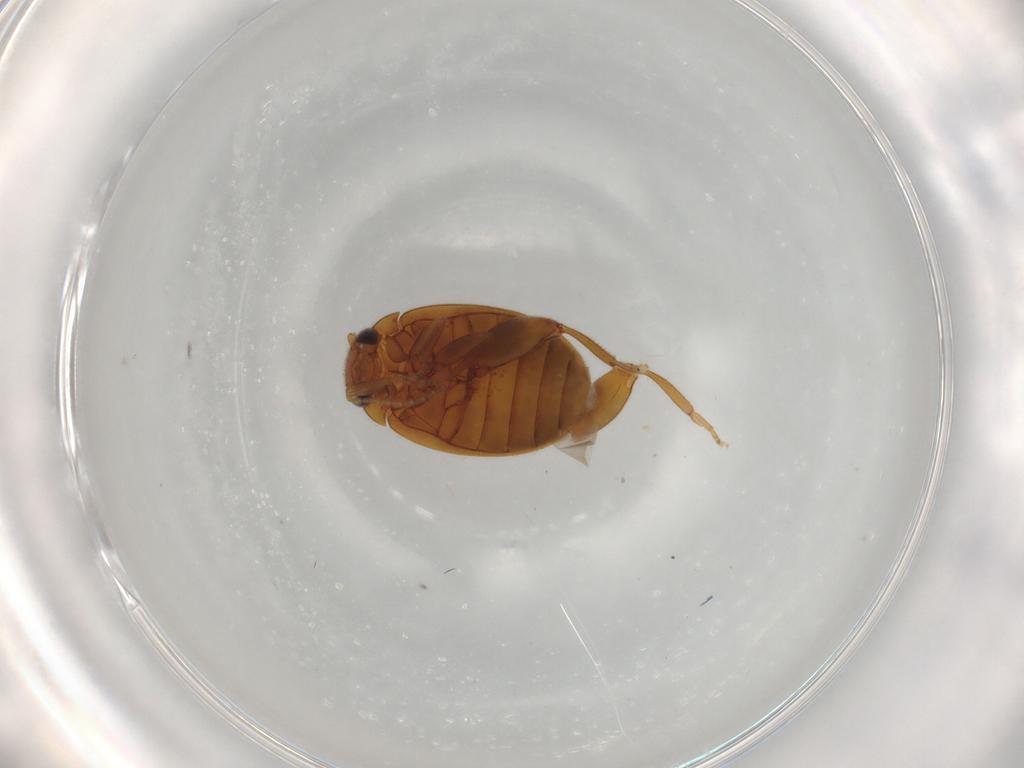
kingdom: Animalia
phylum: Arthropoda
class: Insecta
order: Coleoptera
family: Scirtidae
